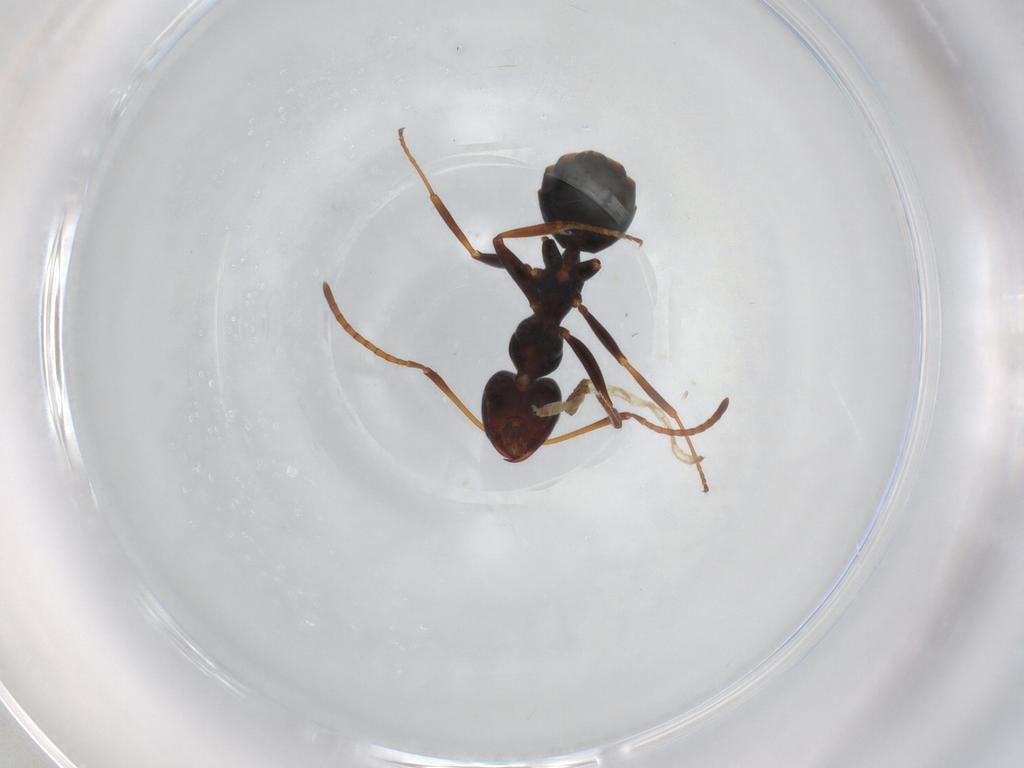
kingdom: Animalia
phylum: Arthropoda
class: Insecta
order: Hymenoptera
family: Formicidae
